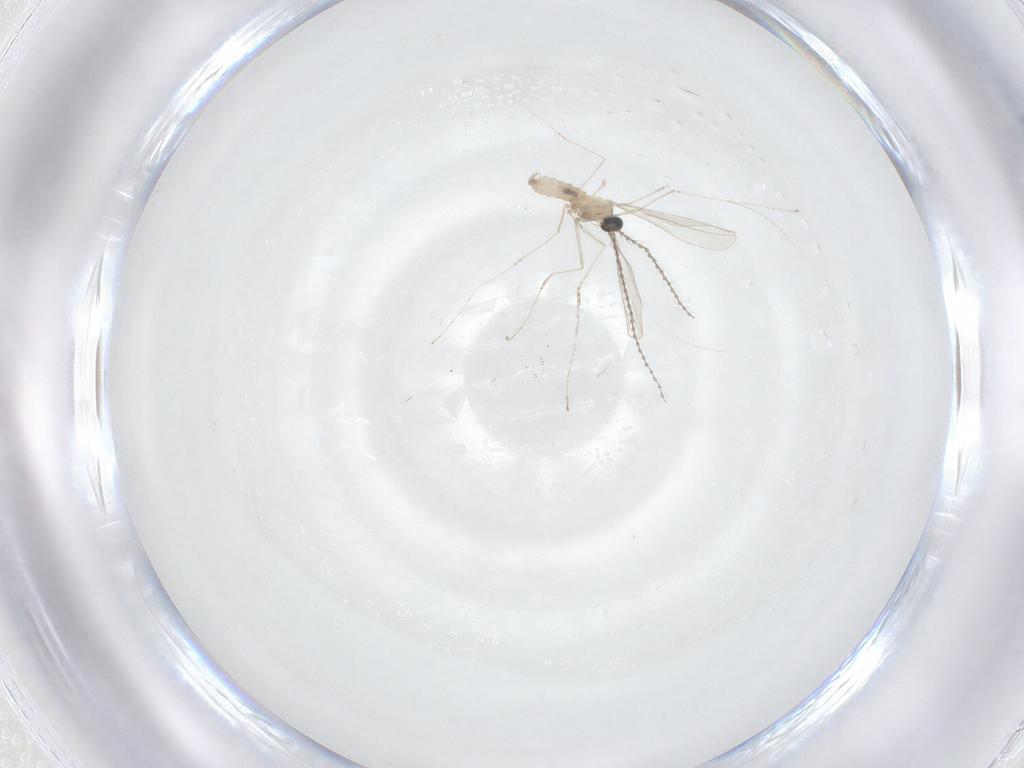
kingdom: Animalia
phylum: Arthropoda
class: Insecta
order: Diptera
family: Cecidomyiidae
